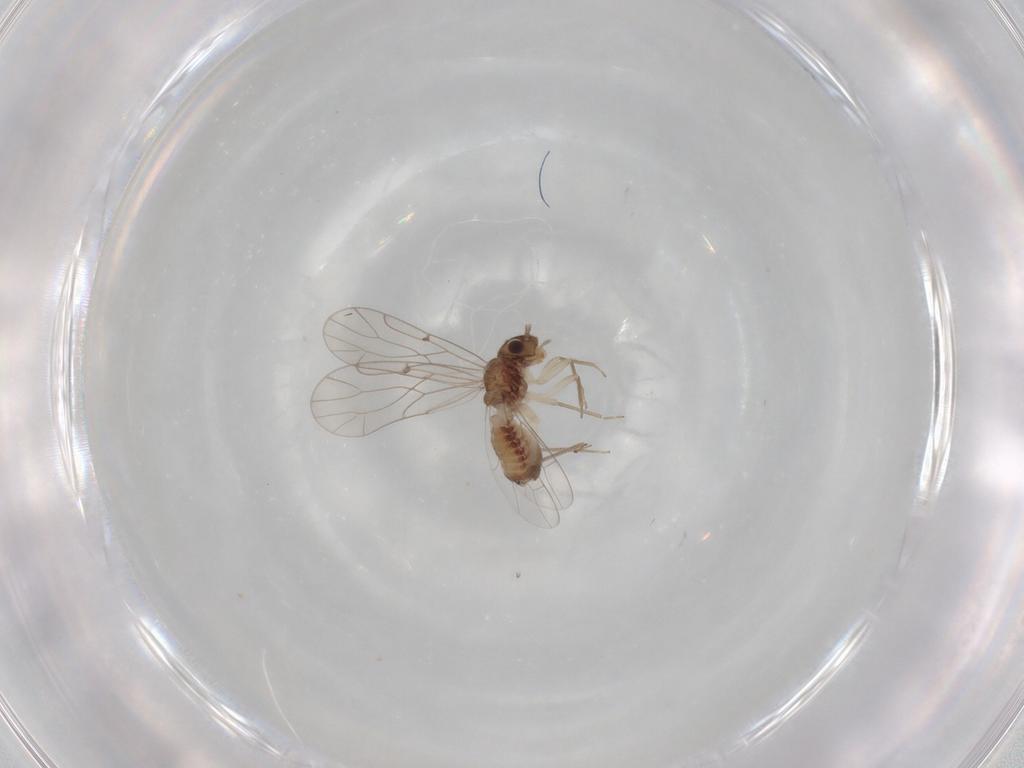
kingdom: Animalia
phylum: Arthropoda
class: Insecta
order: Psocodea
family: Ectopsocidae
